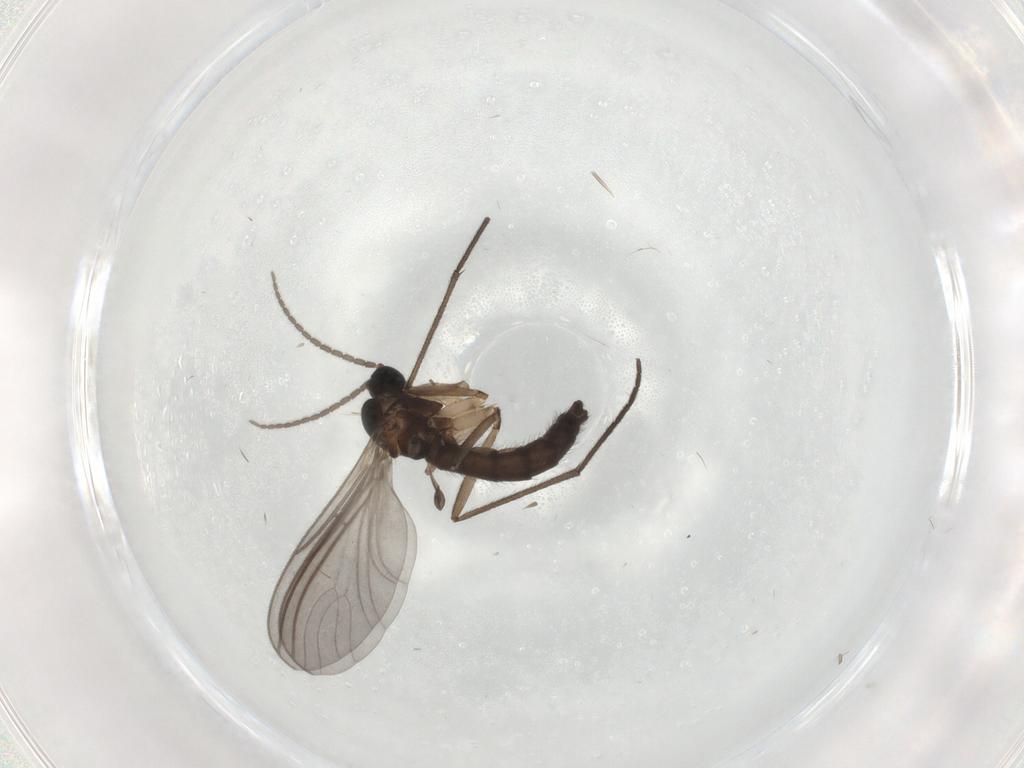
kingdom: Animalia
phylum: Arthropoda
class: Insecta
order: Diptera
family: Sciaridae
